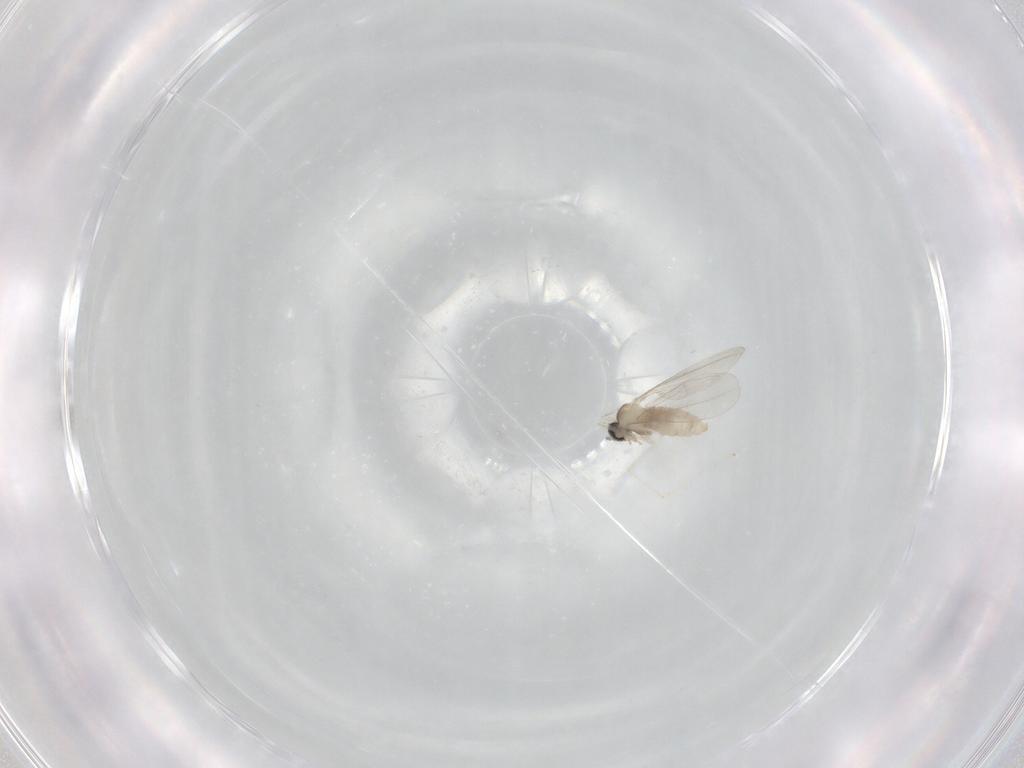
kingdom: Animalia
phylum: Arthropoda
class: Insecta
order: Diptera
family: Cecidomyiidae
